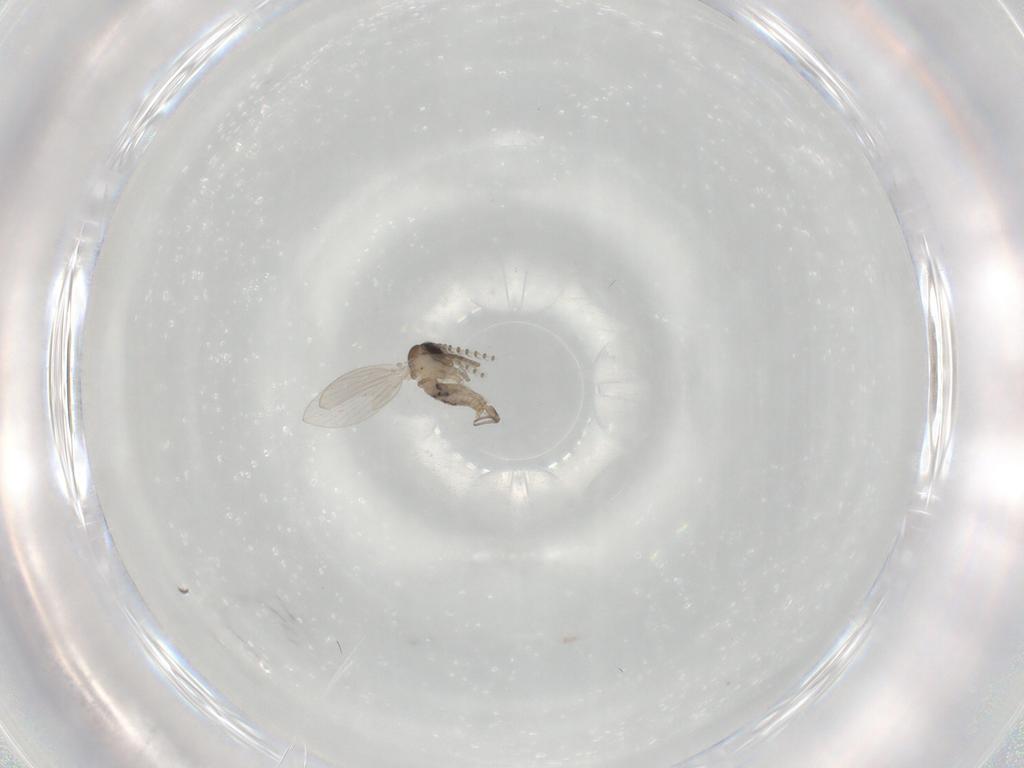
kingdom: Animalia
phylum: Arthropoda
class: Insecta
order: Diptera
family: Psychodidae
